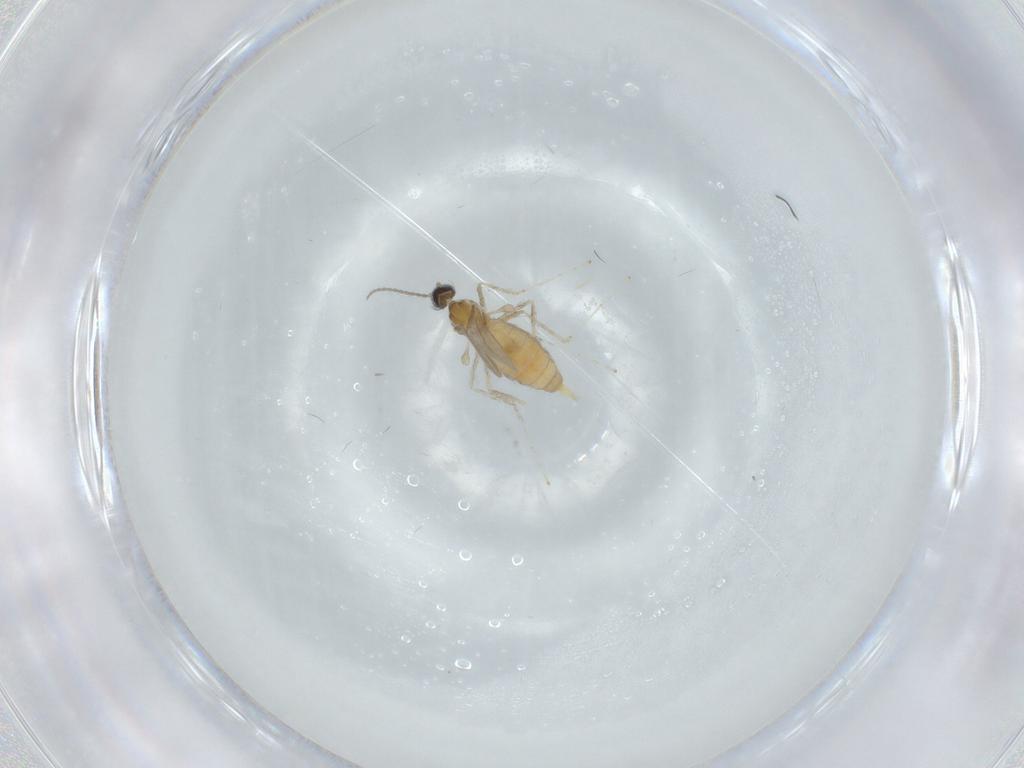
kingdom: Animalia
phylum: Arthropoda
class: Insecta
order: Diptera
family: Cecidomyiidae
